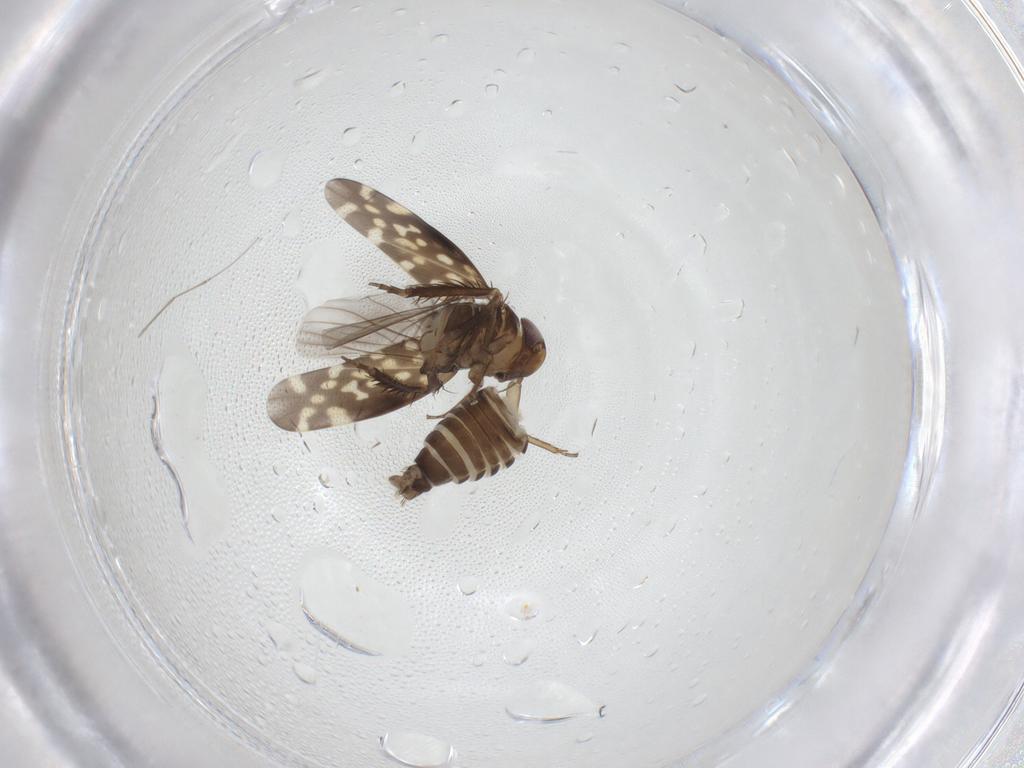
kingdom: Animalia
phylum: Arthropoda
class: Insecta
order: Hemiptera
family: Cicadellidae
